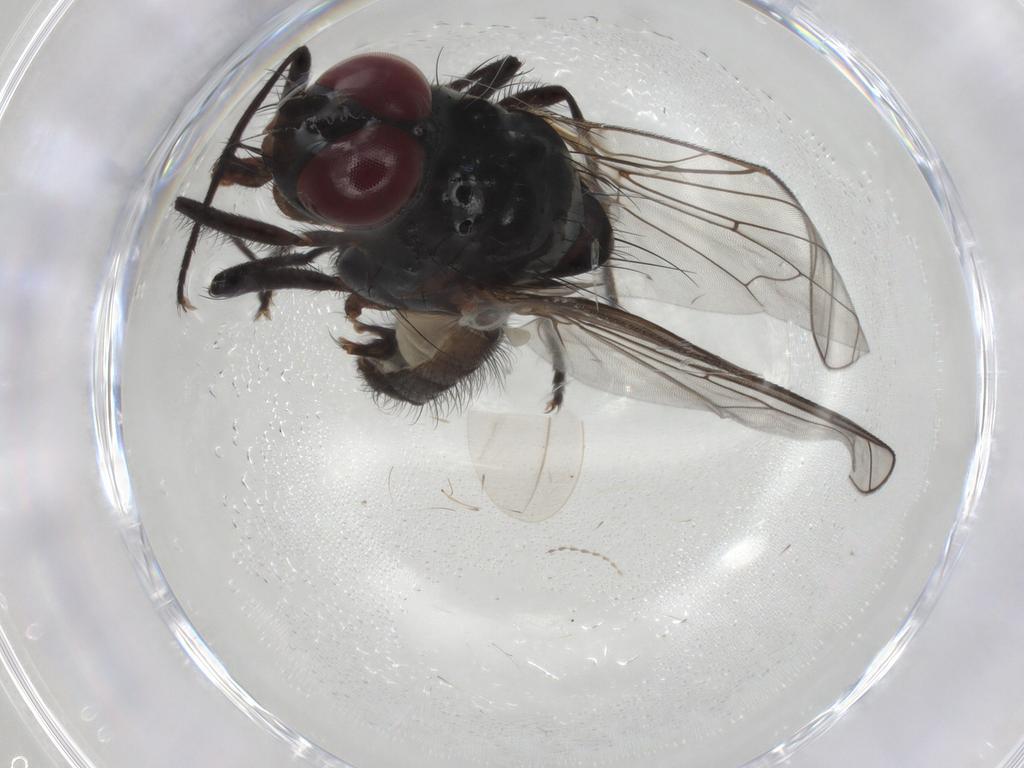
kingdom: Animalia
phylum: Arthropoda
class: Insecta
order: Diptera
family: Anthomyiidae
